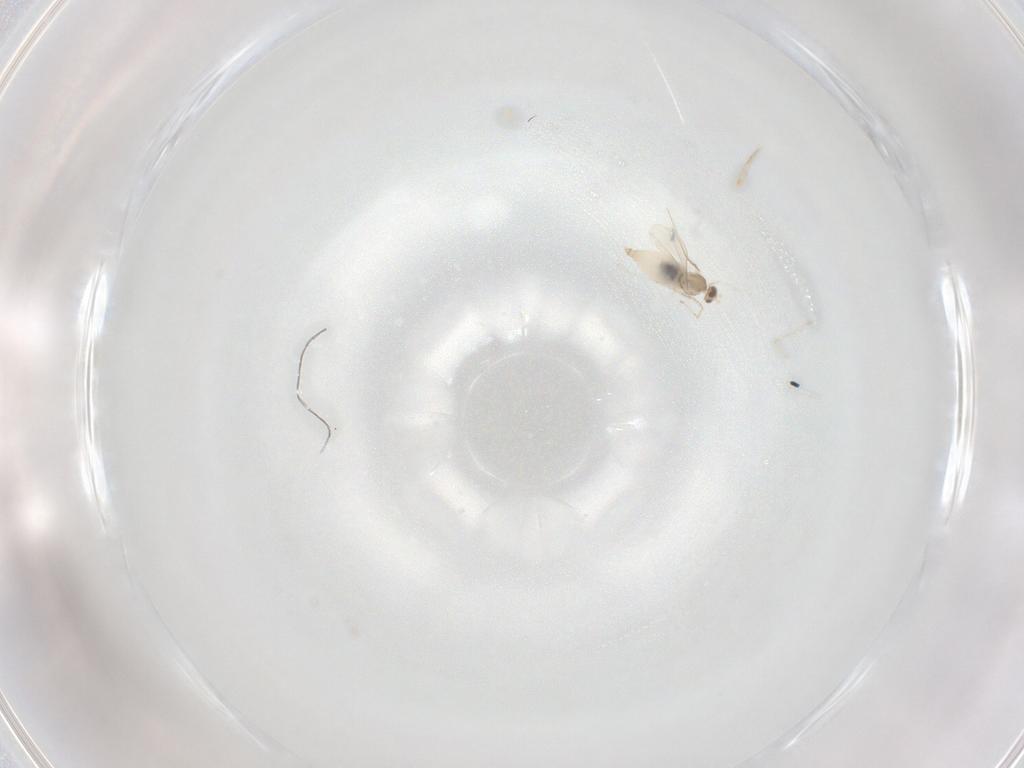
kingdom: Animalia
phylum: Arthropoda
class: Insecta
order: Diptera
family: Cecidomyiidae
